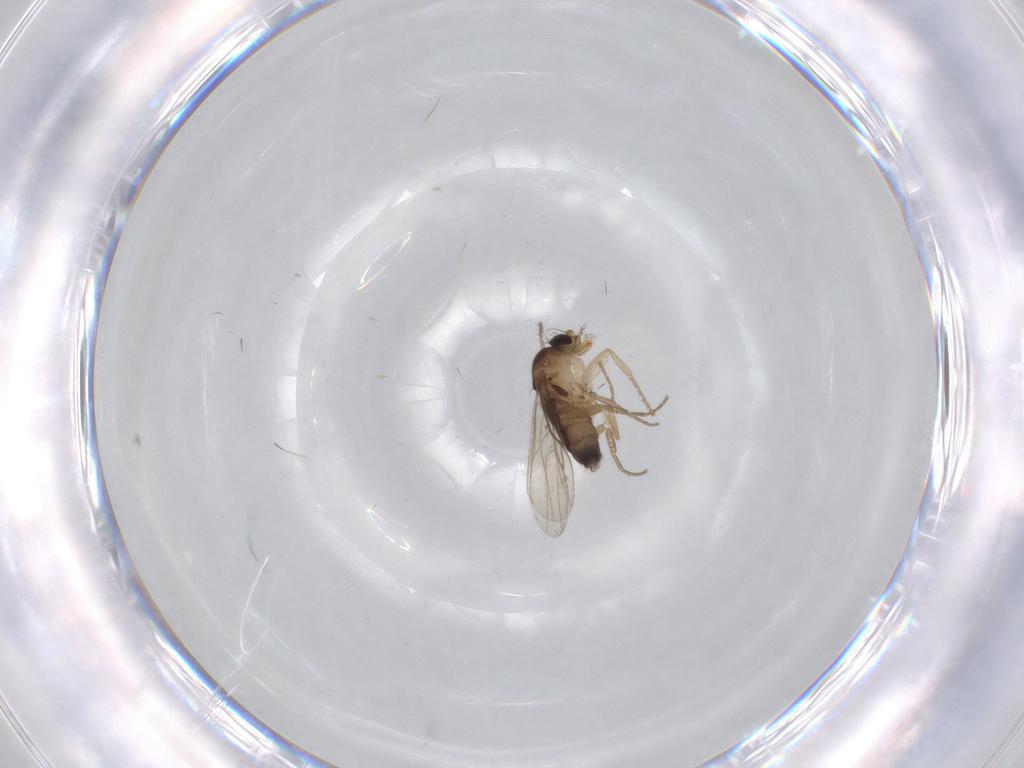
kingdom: Animalia
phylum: Arthropoda
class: Insecta
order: Diptera
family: Phoridae
